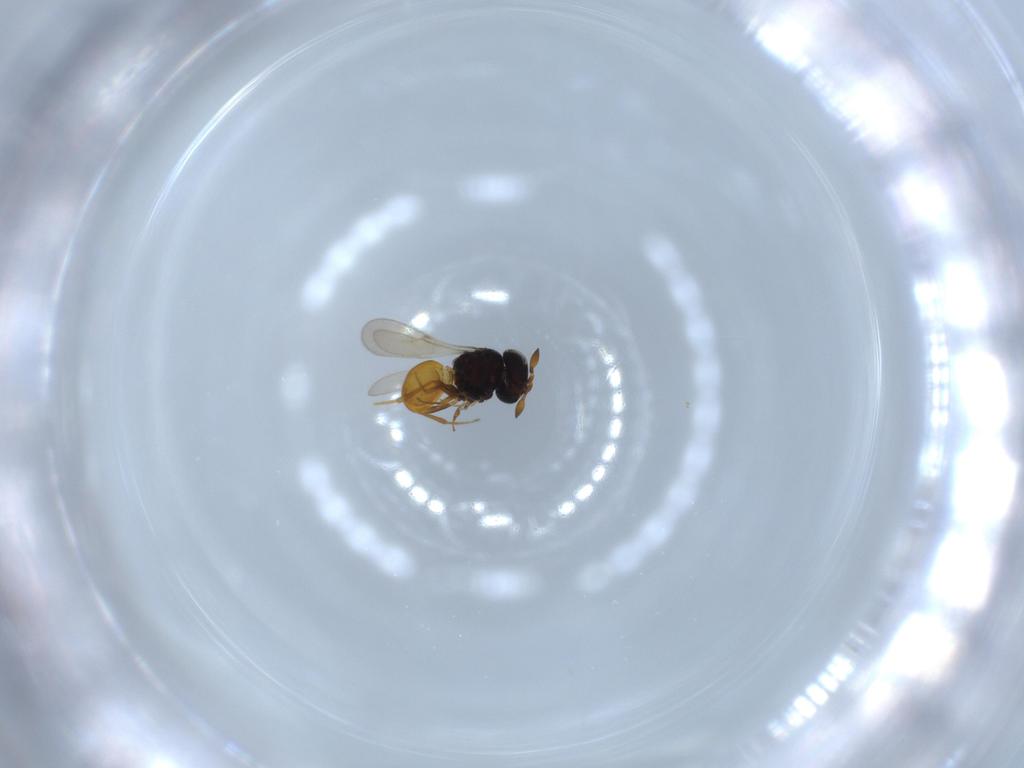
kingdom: Animalia
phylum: Arthropoda
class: Insecta
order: Hymenoptera
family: Scelionidae
